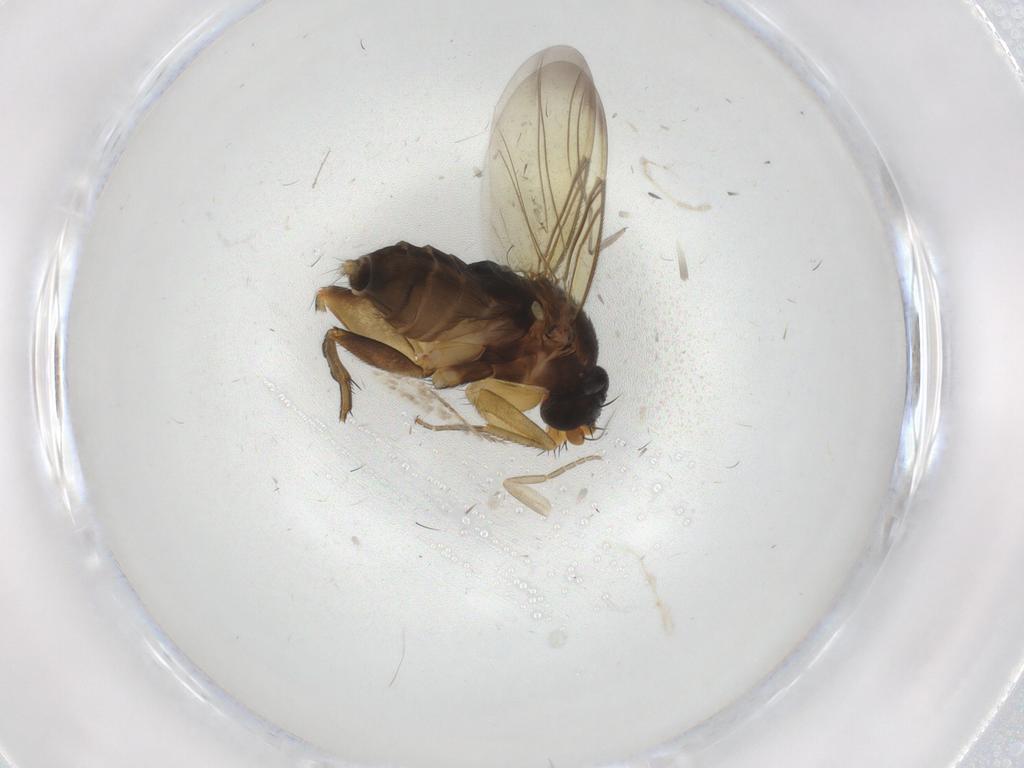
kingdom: Animalia
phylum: Arthropoda
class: Insecta
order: Diptera
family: Phoridae
